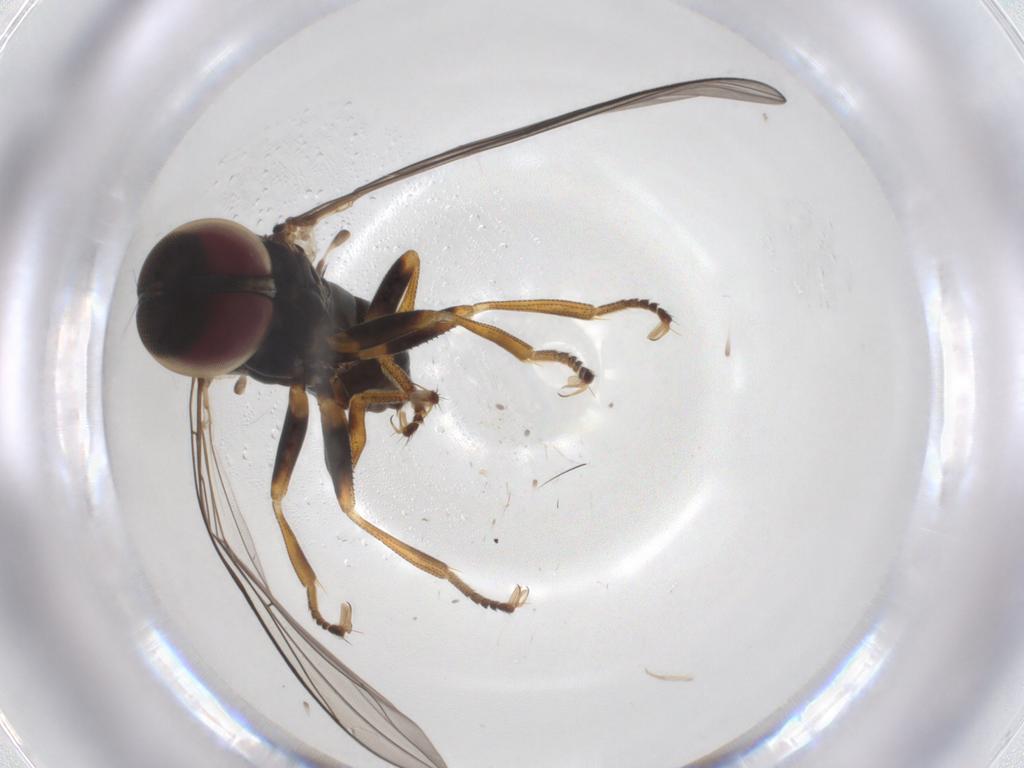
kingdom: Animalia
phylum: Arthropoda
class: Insecta
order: Diptera
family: Pipunculidae
